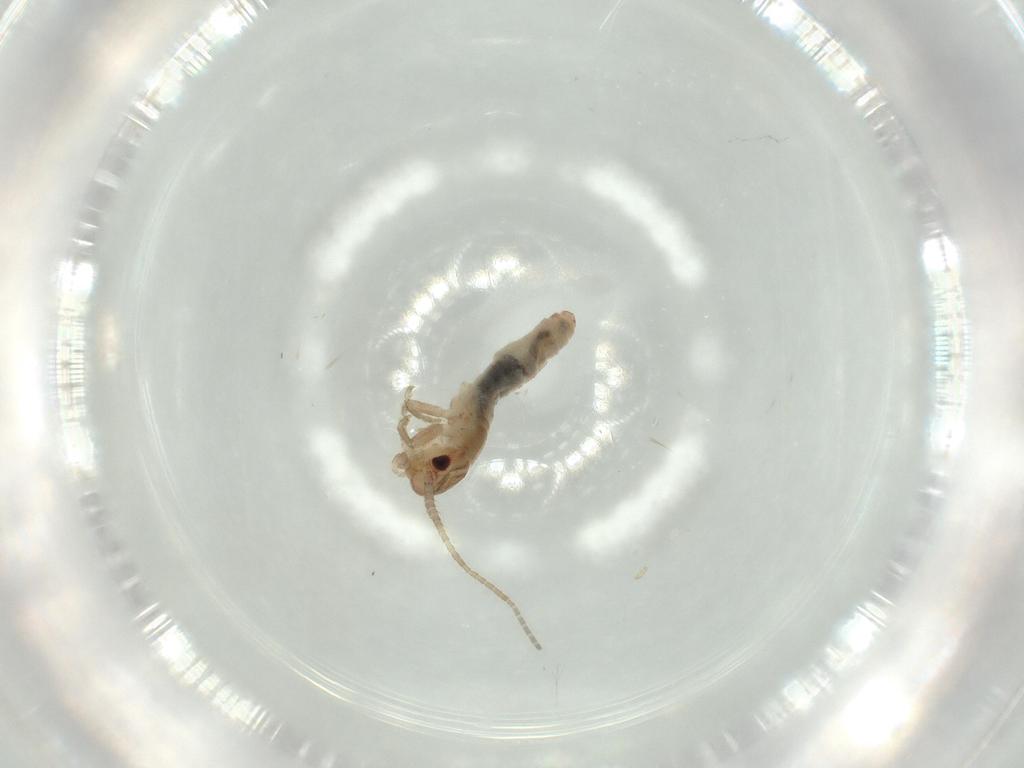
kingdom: Animalia
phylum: Arthropoda
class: Insecta
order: Orthoptera
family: Mogoplistidae
